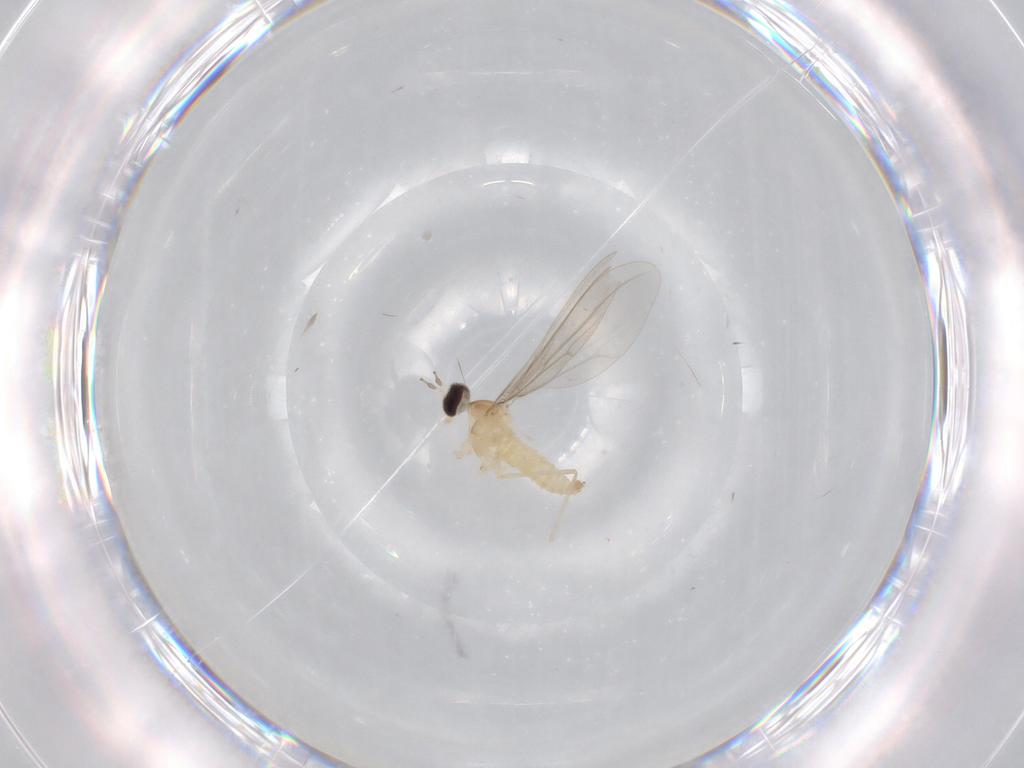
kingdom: Animalia
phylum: Arthropoda
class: Insecta
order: Diptera
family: Cecidomyiidae
